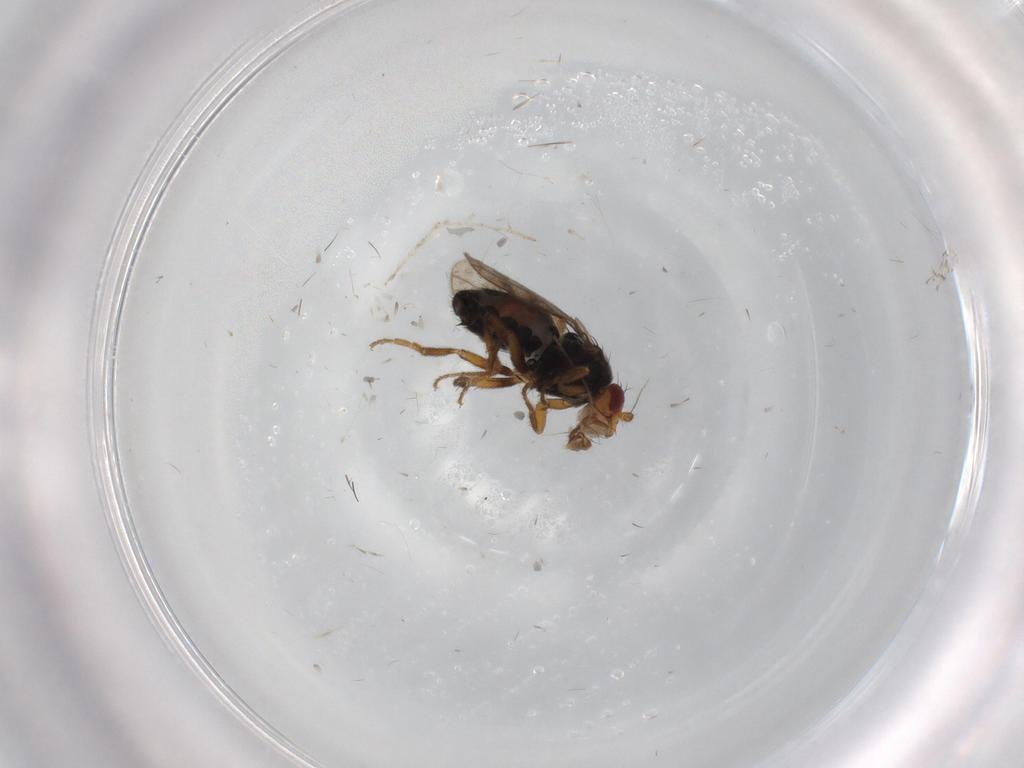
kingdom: Animalia
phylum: Arthropoda
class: Insecta
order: Diptera
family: Sphaeroceridae
